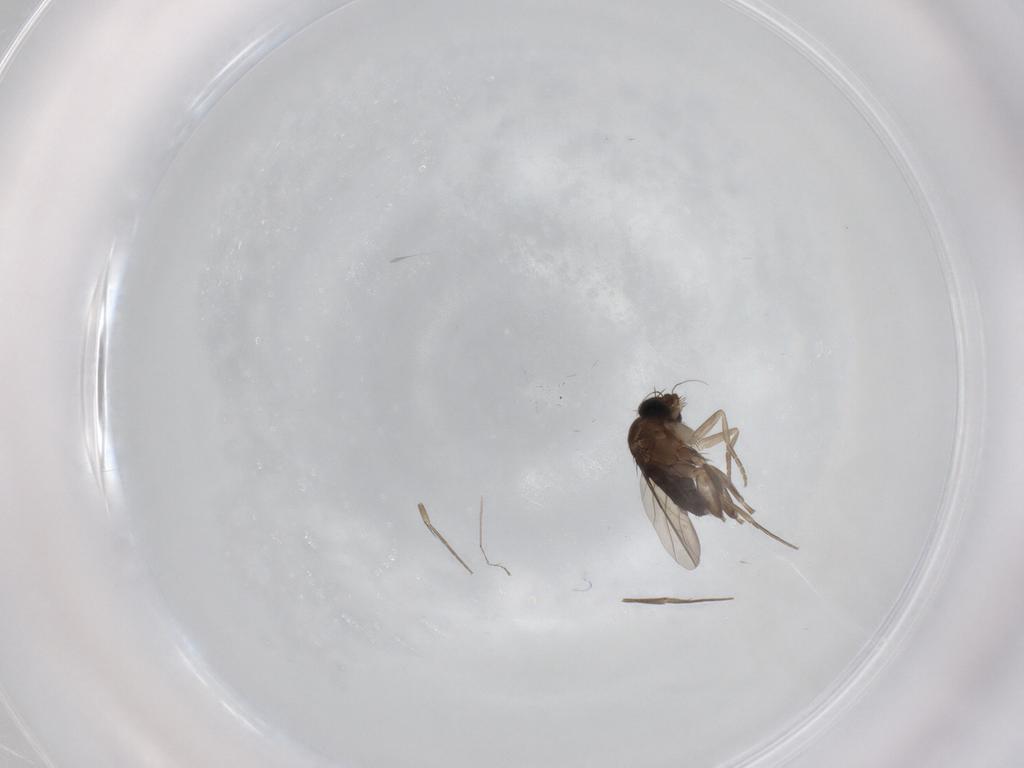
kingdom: Animalia
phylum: Arthropoda
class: Insecta
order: Diptera
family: Phoridae
